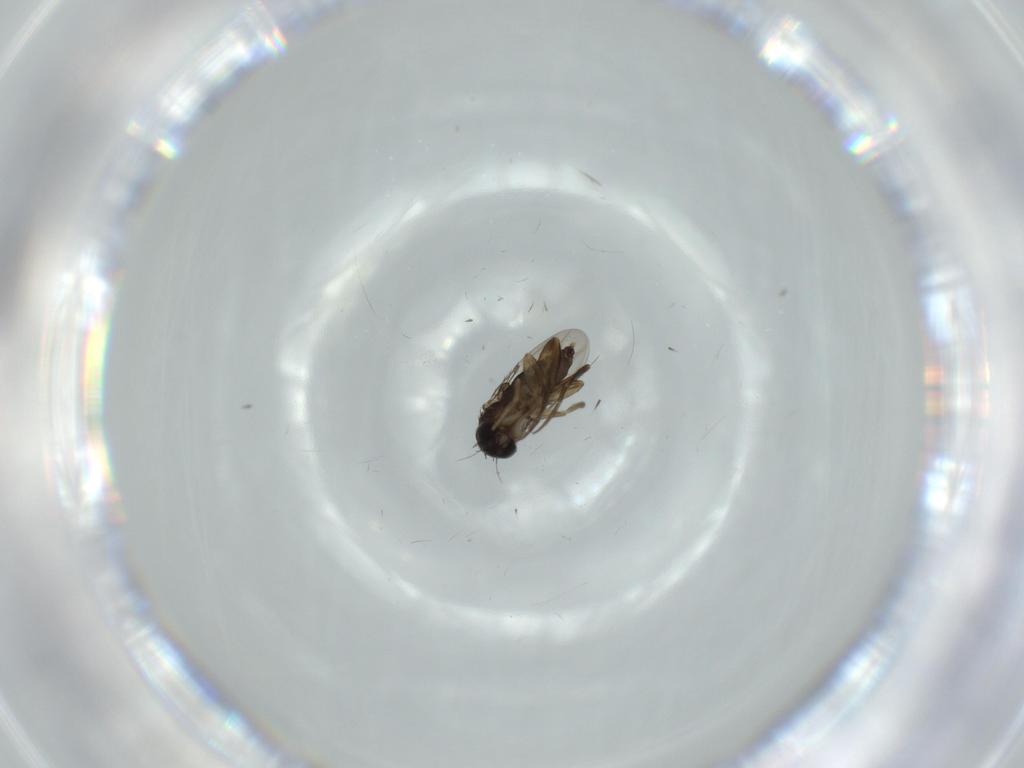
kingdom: Animalia
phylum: Arthropoda
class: Insecta
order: Diptera
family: Phoridae
